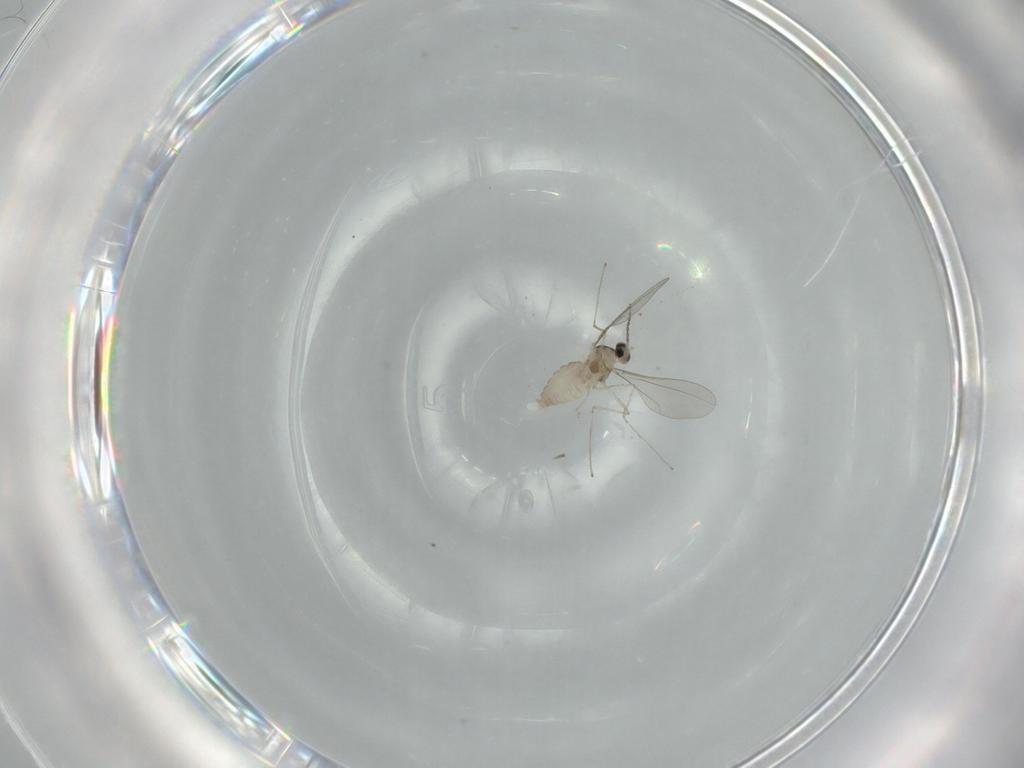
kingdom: Animalia
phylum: Arthropoda
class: Insecta
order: Diptera
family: Cecidomyiidae
